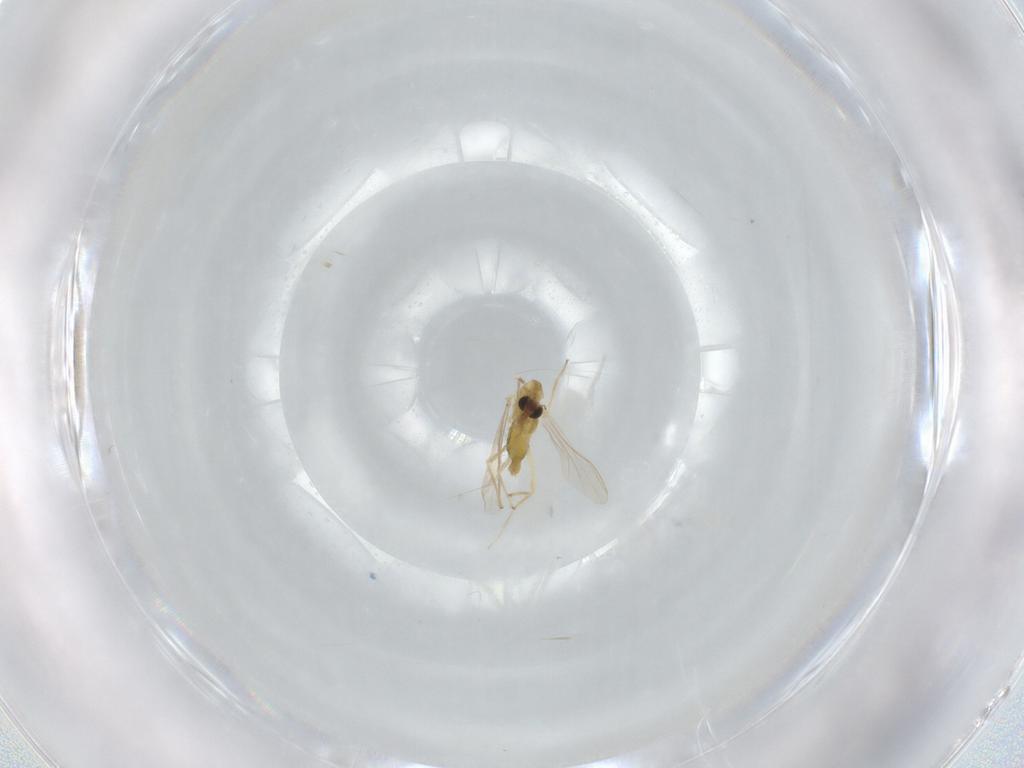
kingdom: Animalia
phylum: Arthropoda
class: Insecta
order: Diptera
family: Chironomidae
